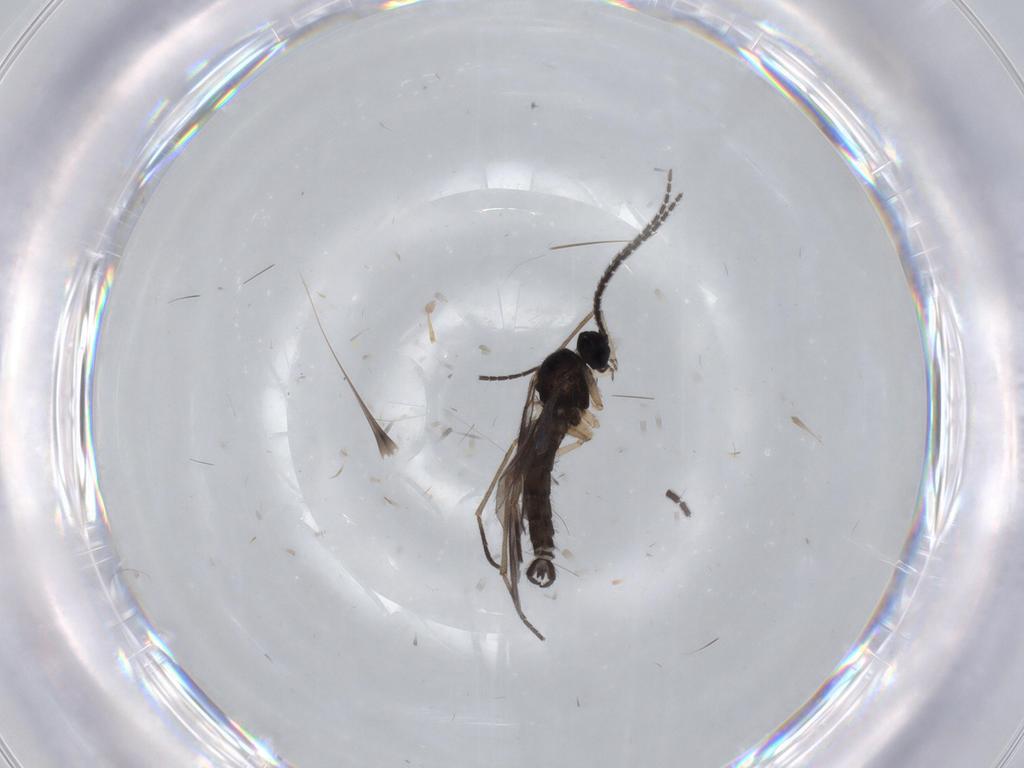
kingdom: Animalia
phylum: Arthropoda
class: Insecta
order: Diptera
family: Sciaridae
